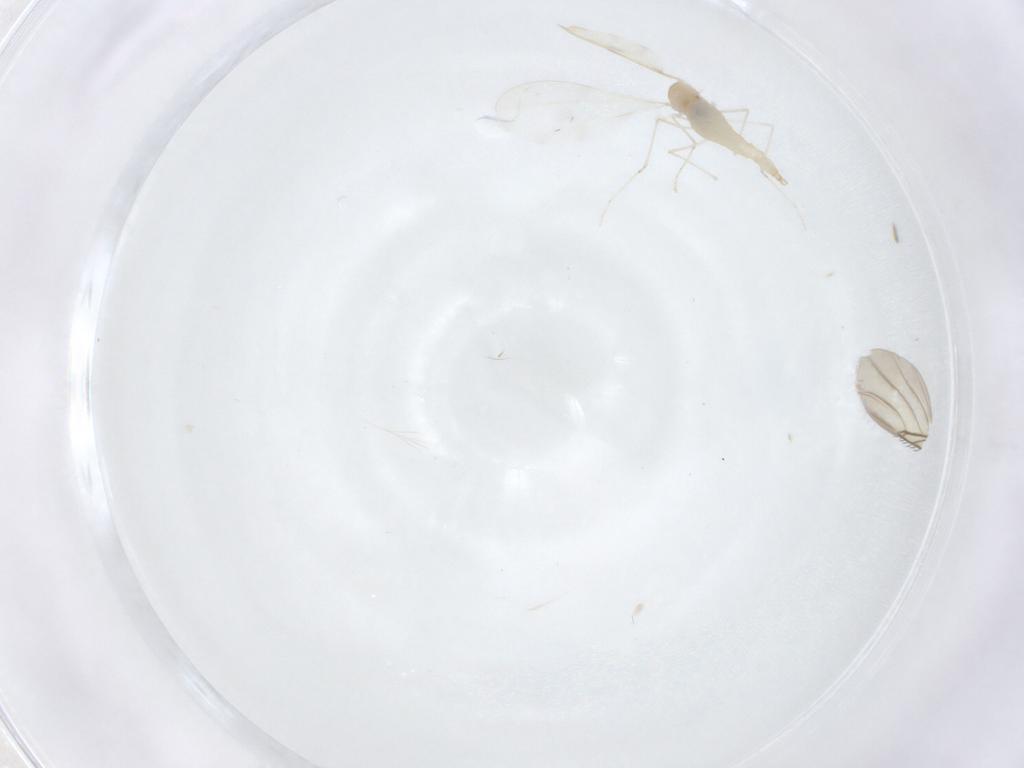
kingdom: Animalia
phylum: Arthropoda
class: Insecta
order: Diptera
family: Cecidomyiidae
